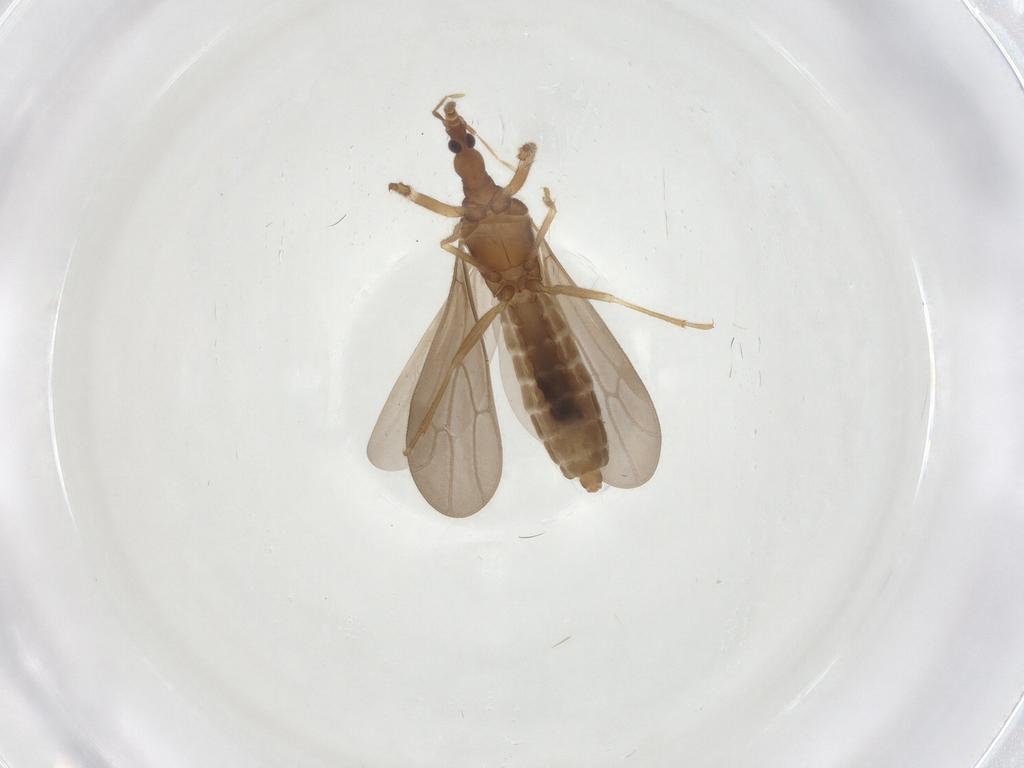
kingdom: Animalia
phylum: Arthropoda
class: Insecta
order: Hemiptera
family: Enicocephalidae
